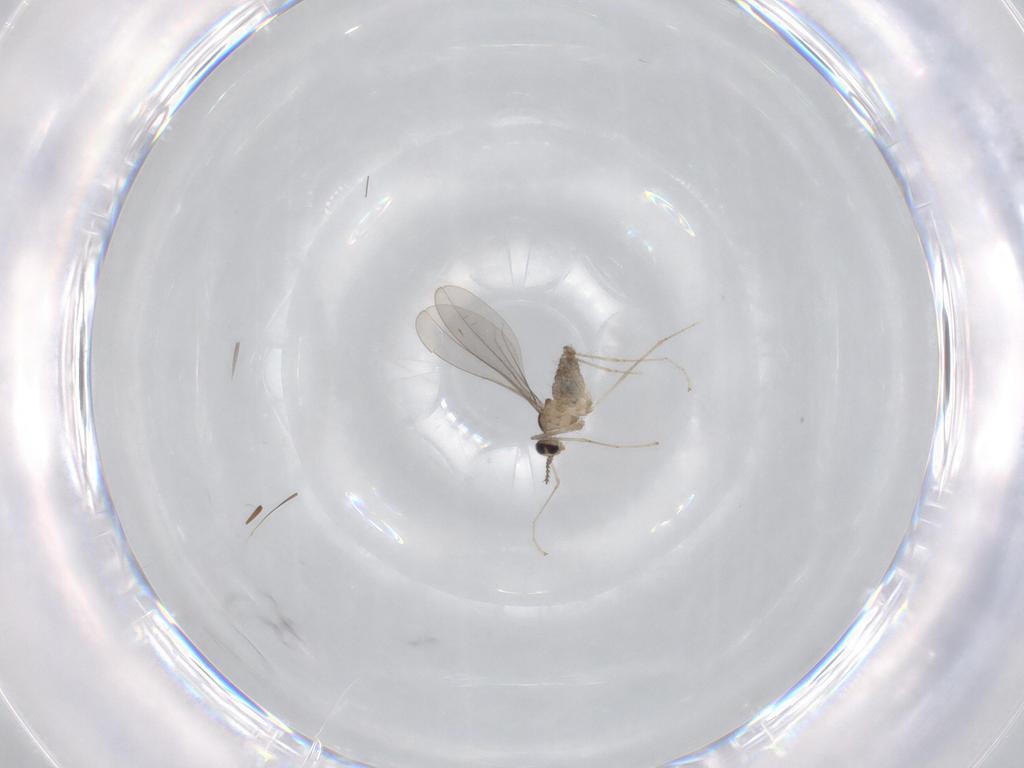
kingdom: Animalia
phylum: Arthropoda
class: Insecta
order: Diptera
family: Cecidomyiidae
